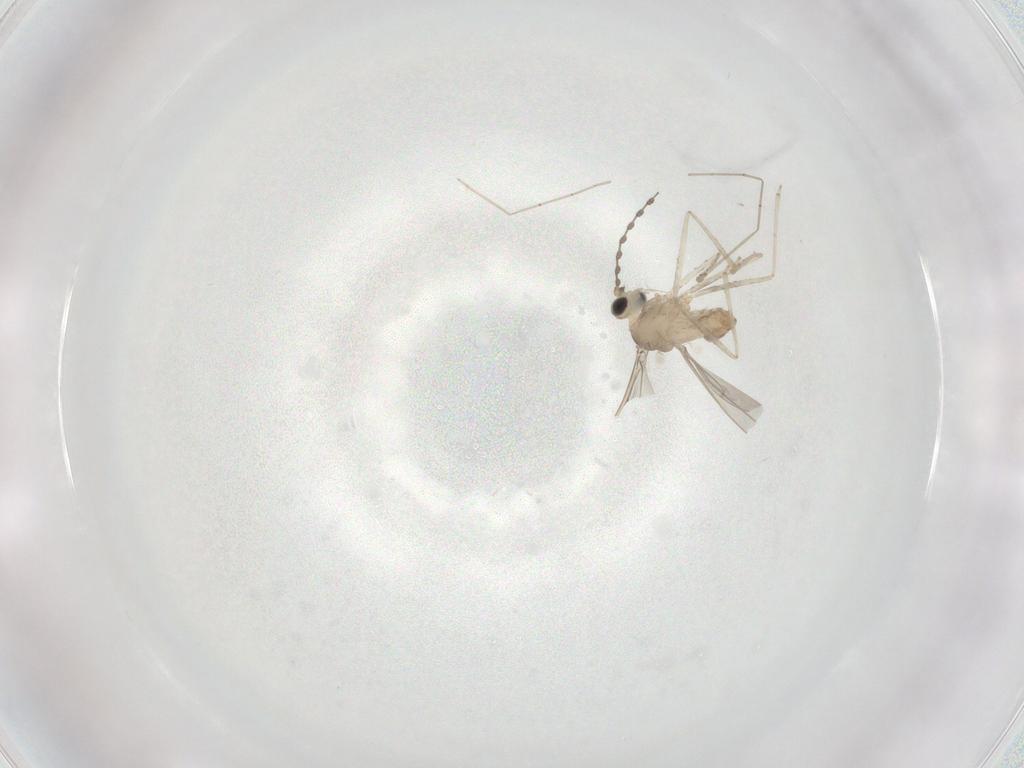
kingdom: Animalia
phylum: Arthropoda
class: Insecta
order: Diptera
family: Cecidomyiidae
